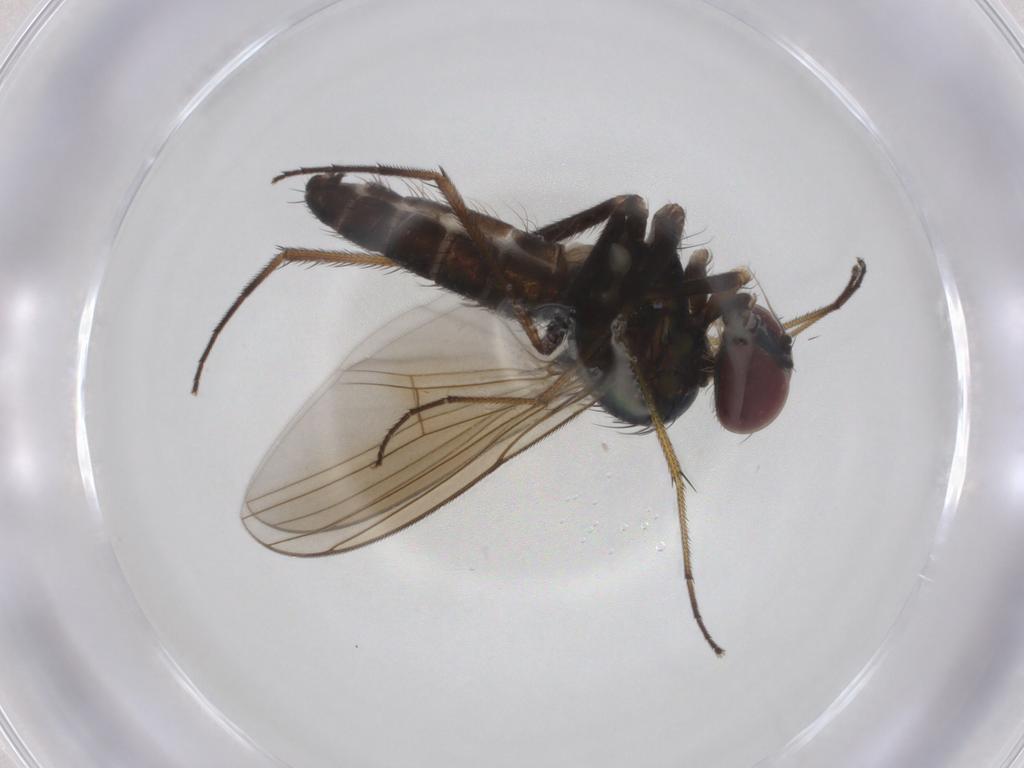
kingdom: Animalia
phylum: Arthropoda
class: Insecta
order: Diptera
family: Dolichopodidae
